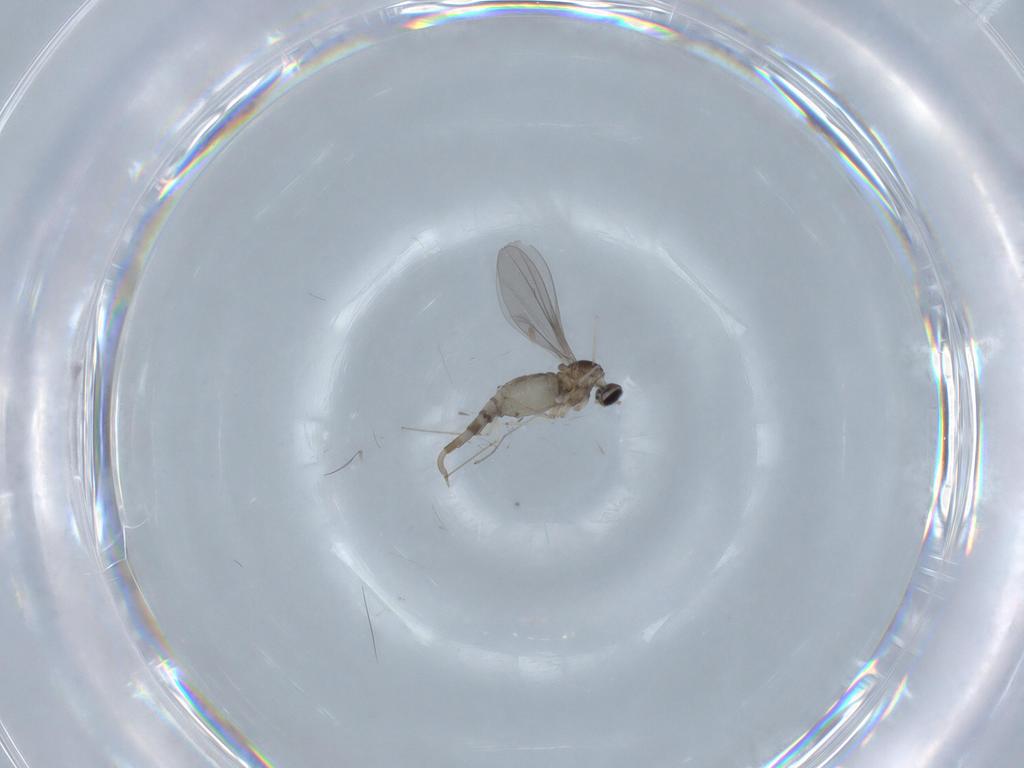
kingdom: Animalia
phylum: Arthropoda
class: Insecta
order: Diptera
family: Cecidomyiidae
